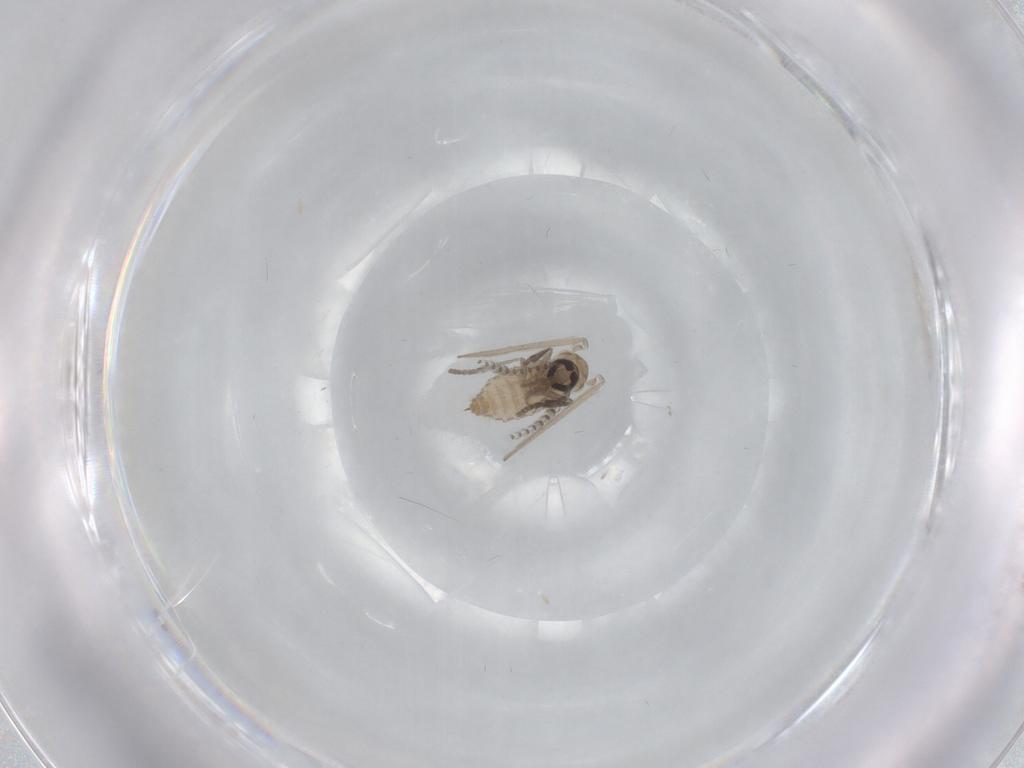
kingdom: Animalia
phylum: Arthropoda
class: Insecta
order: Diptera
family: Psychodidae
